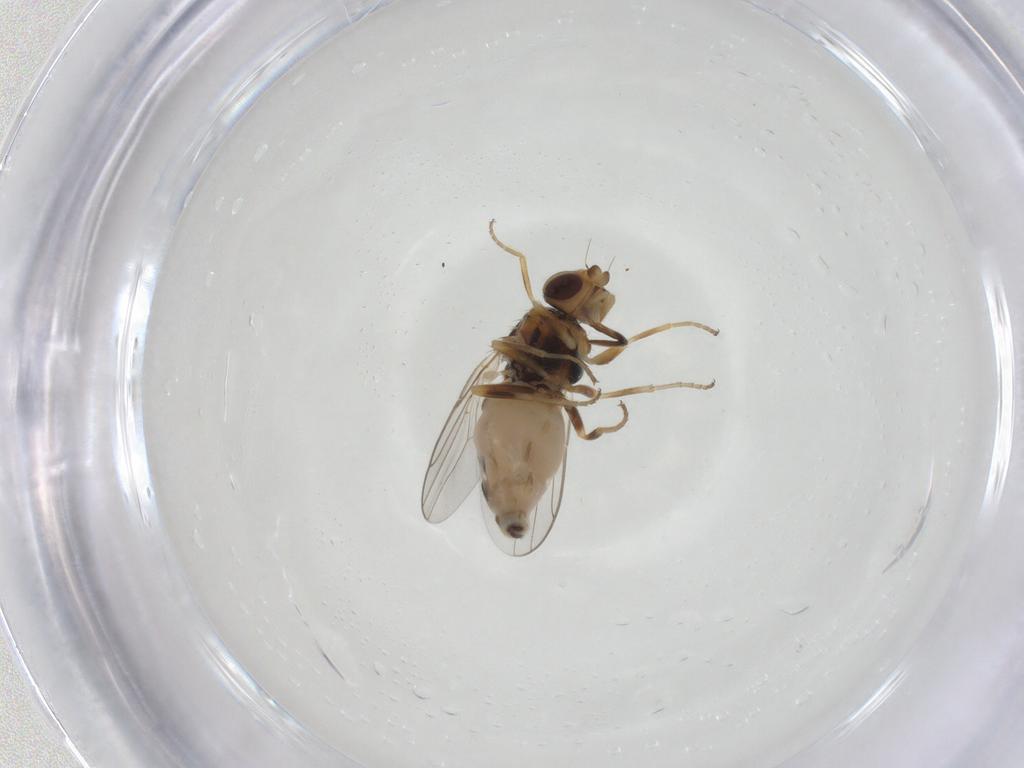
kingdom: Animalia
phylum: Arthropoda
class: Insecta
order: Diptera
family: Chloropidae
